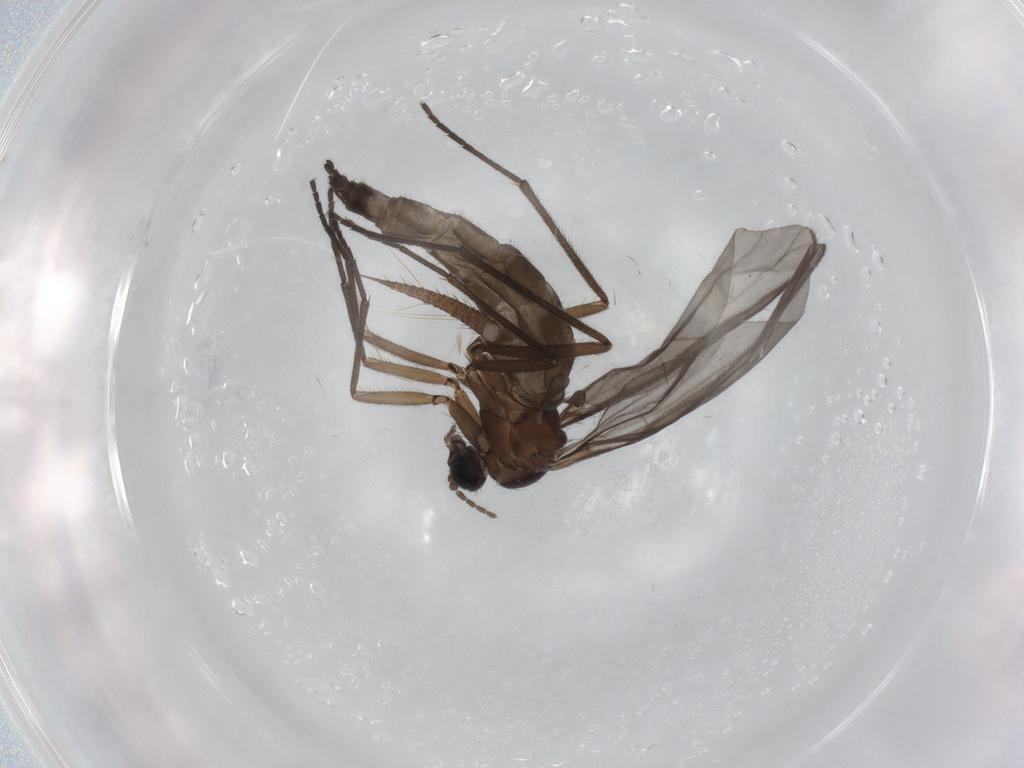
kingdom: Animalia
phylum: Arthropoda
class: Insecta
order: Diptera
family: Sciaridae
